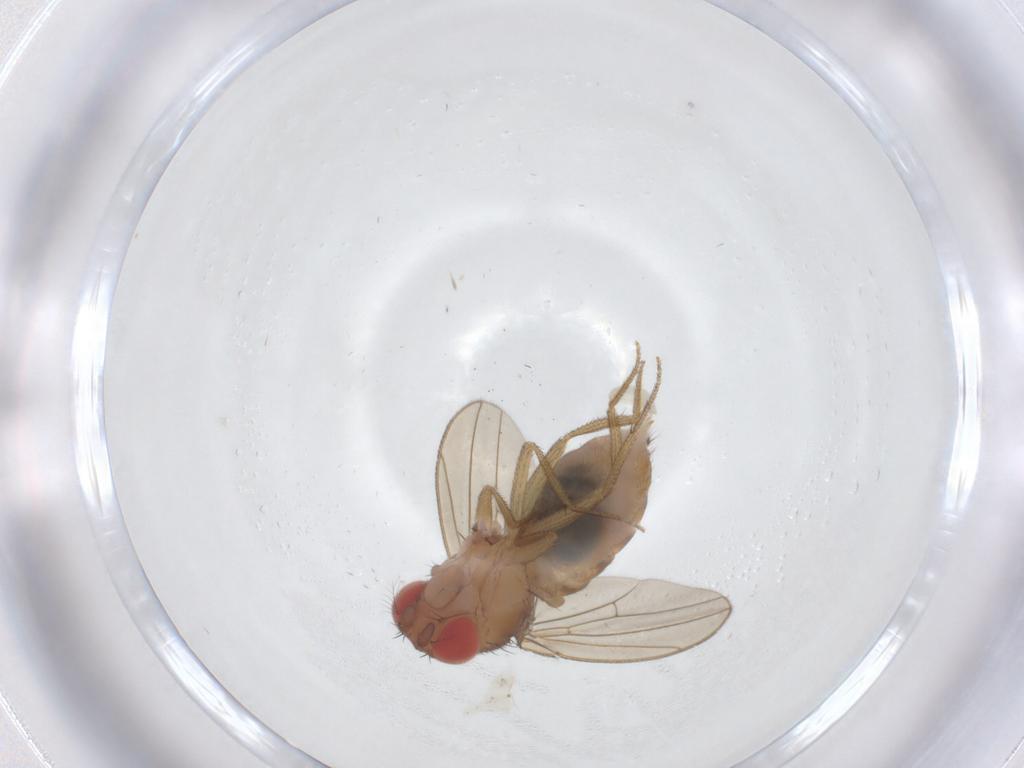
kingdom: Animalia
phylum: Arthropoda
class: Insecta
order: Diptera
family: Drosophilidae
